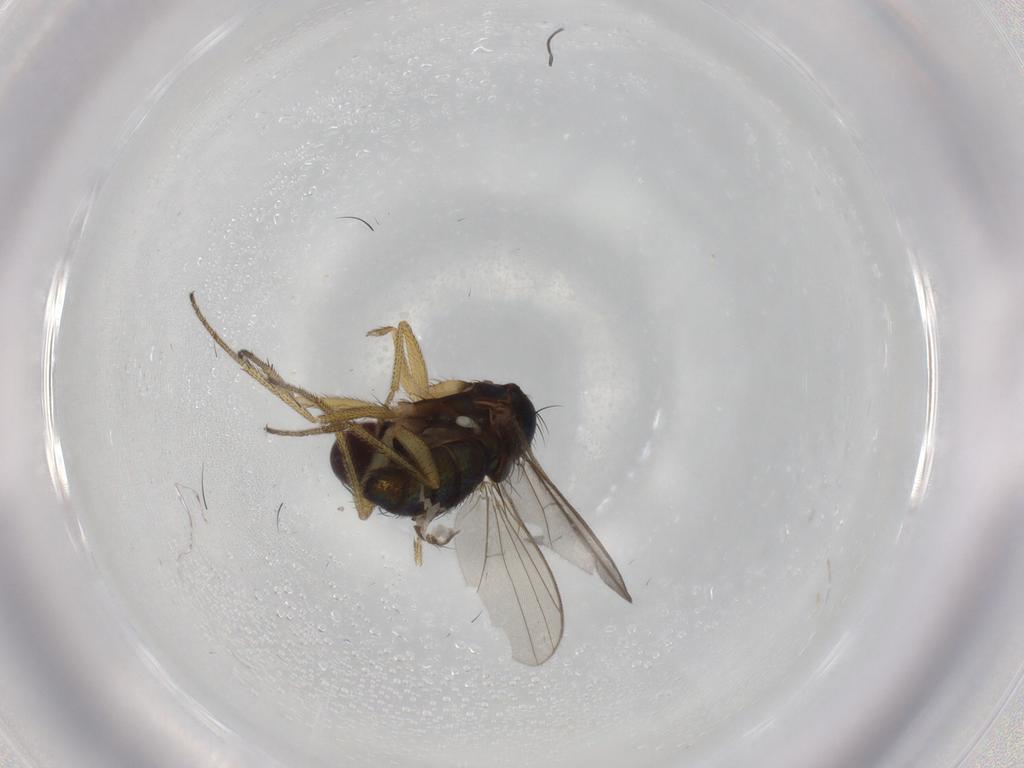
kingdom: Animalia
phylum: Arthropoda
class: Insecta
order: Diptera
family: Dolichopodidae
